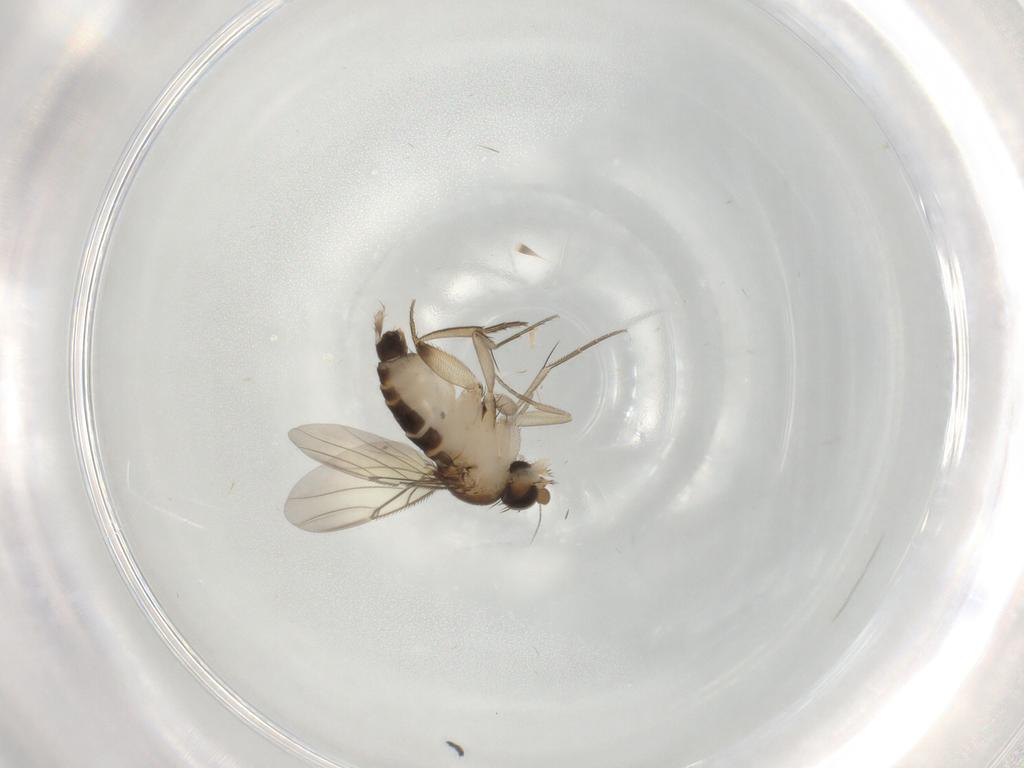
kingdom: Animalia
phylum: Arthropoda
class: Insecta
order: Diptera
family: Phoridae
